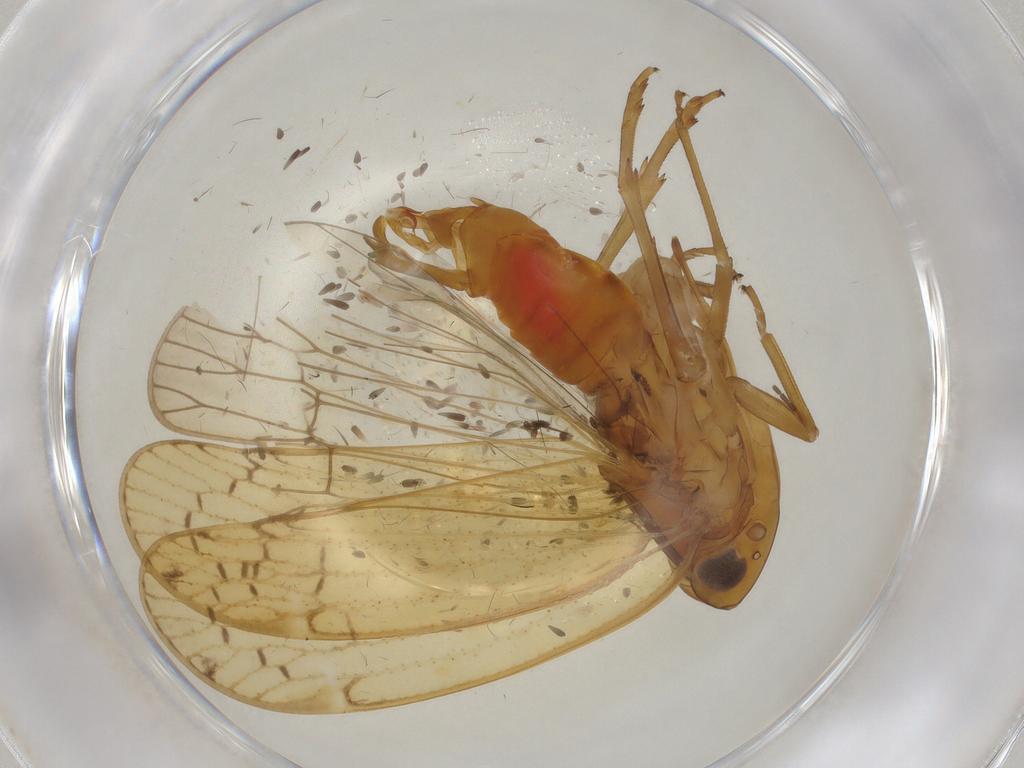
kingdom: Animalia
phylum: Arthropoda
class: Insecta
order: Hemiptera
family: Cixiidae
